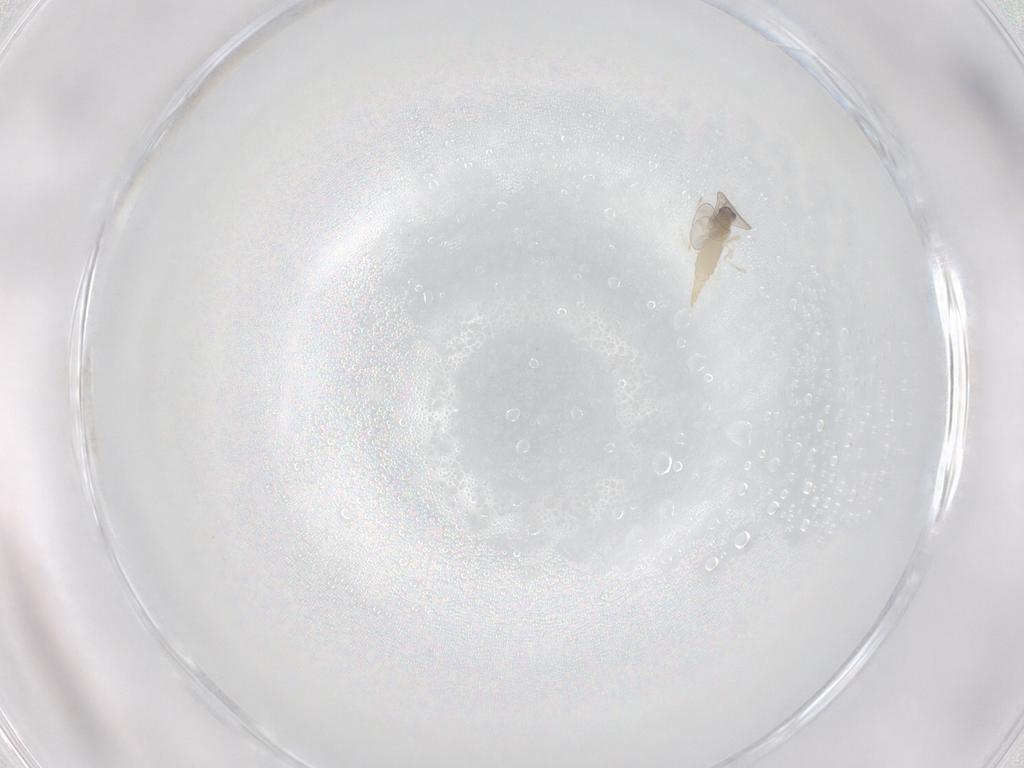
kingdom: Animalia
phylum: Arthropoda
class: Insecta
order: Diptera
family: Cecidomyiidae
